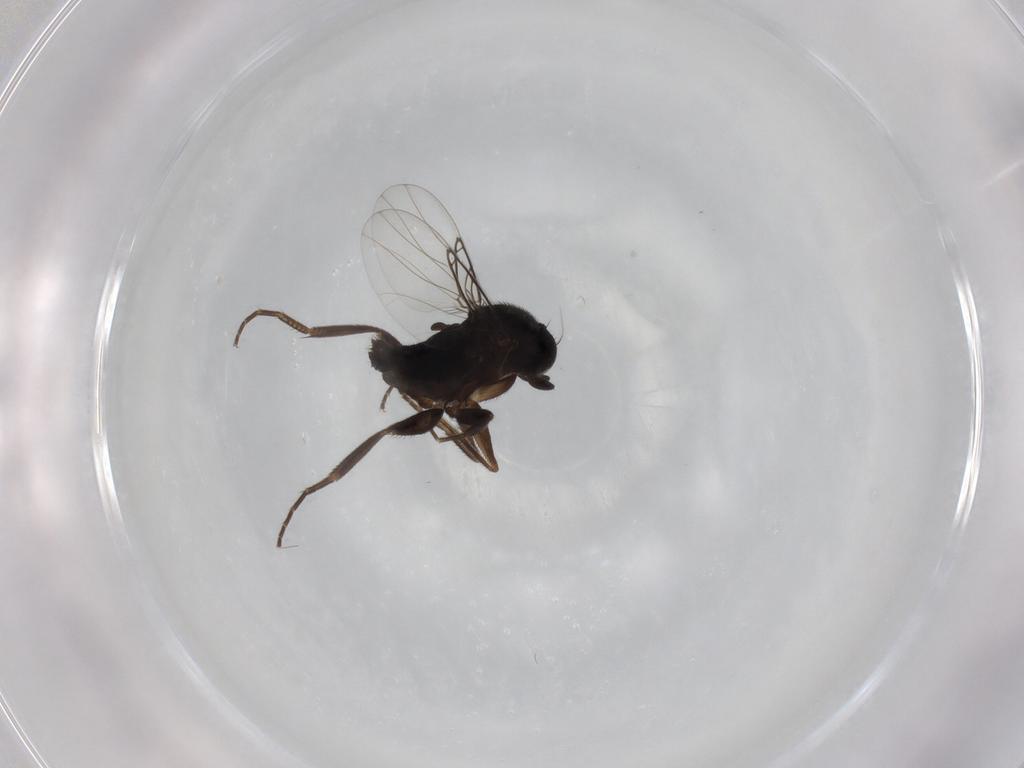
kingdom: Animalia
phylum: Arthropoda
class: Insecta
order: Diptera
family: Phoridae
